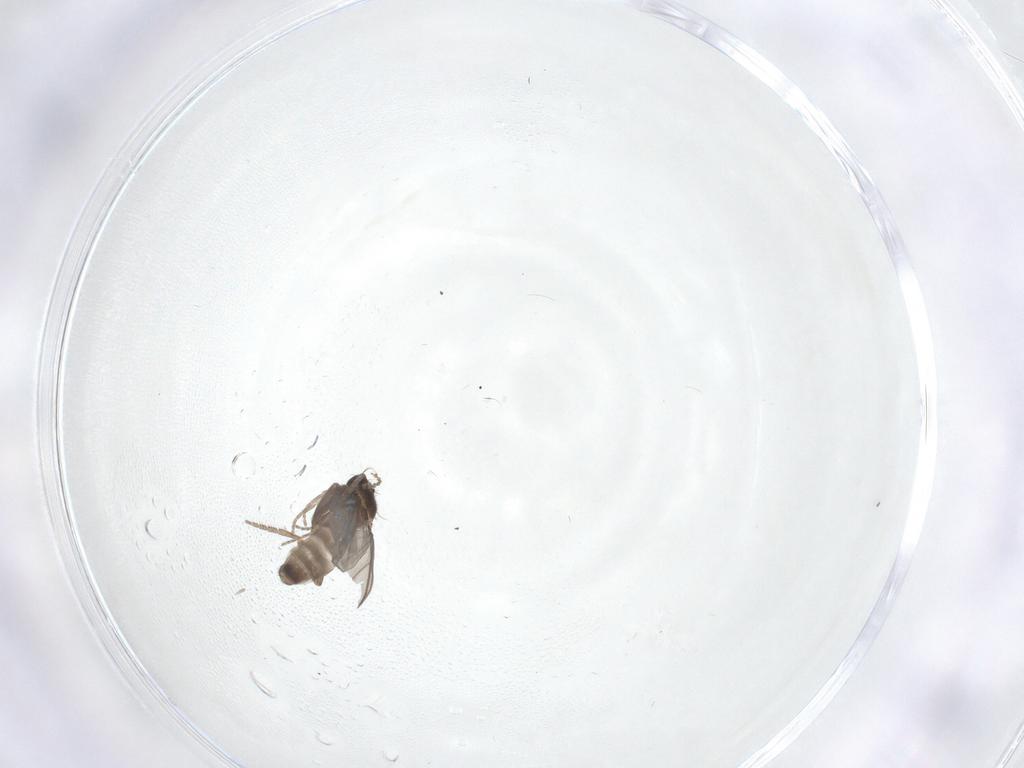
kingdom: Animalia
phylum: Arthropoda
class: Insecta
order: Diptera
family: Phoridae
